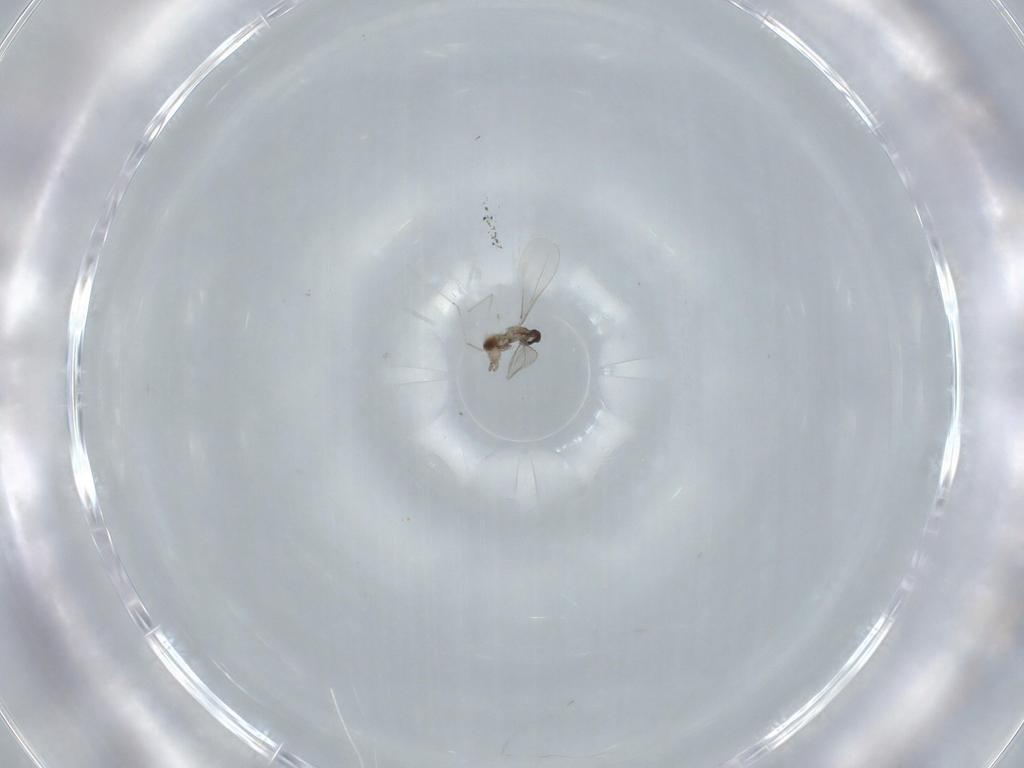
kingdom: Animalia
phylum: Arthropoda
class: Insecta
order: Diptera
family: Cecidomyiidae
